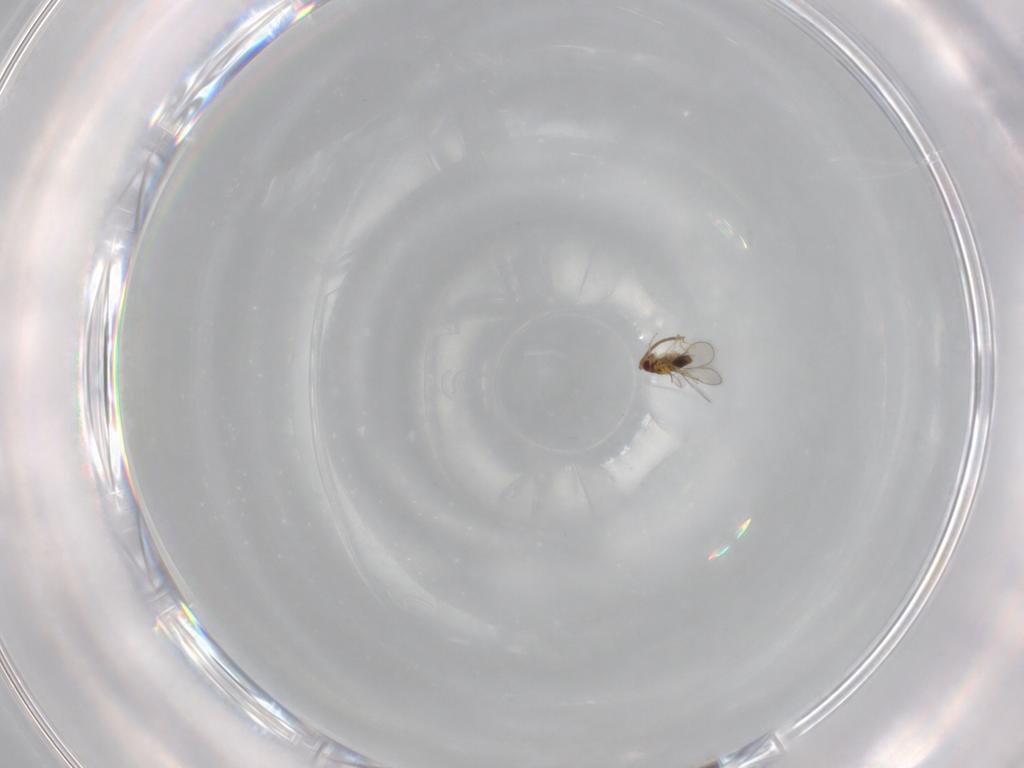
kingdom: Animalia
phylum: Arthropoda
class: Insecta
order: Hymenoptera
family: Aphelinidae
